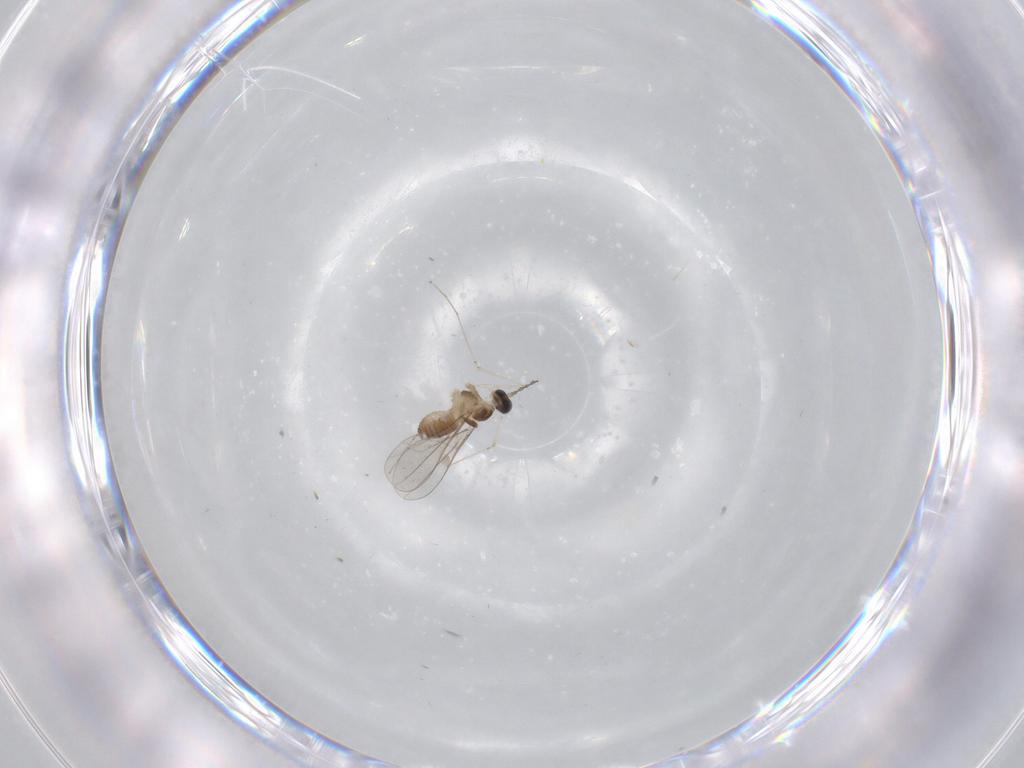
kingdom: Animalia
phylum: Arthropoda
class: Insecta
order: Diptera
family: Cecidomyiidae
